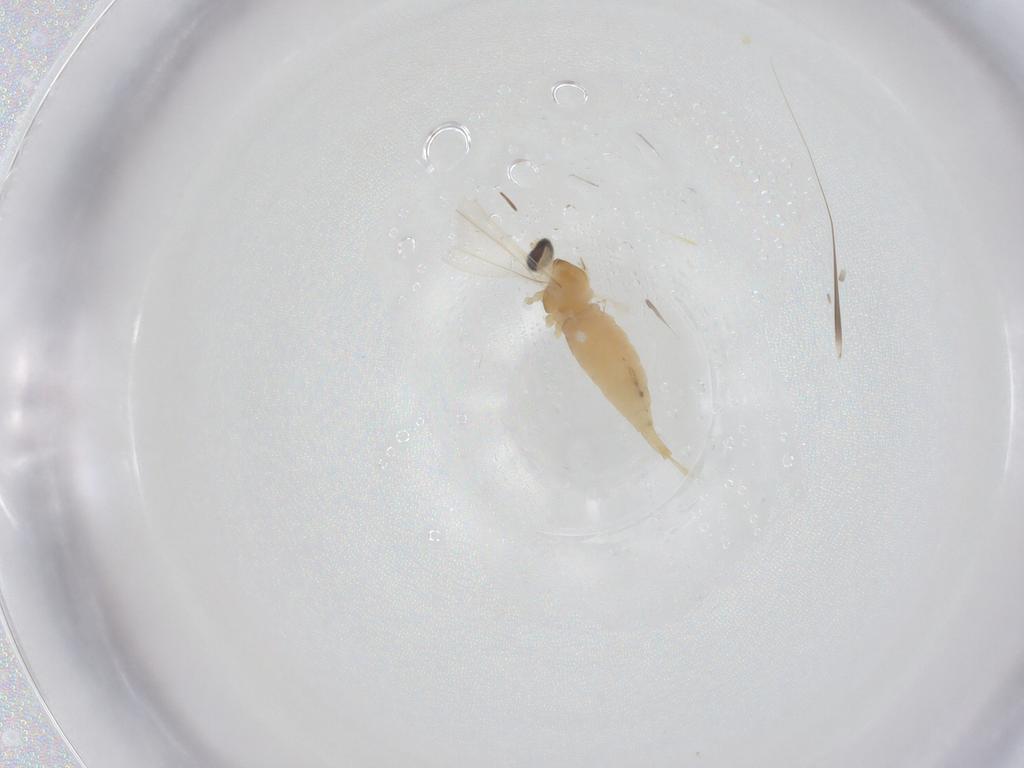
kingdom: Animalia
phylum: Arthropoda
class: Insecta
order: Diptera
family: Cecidomyiidae
